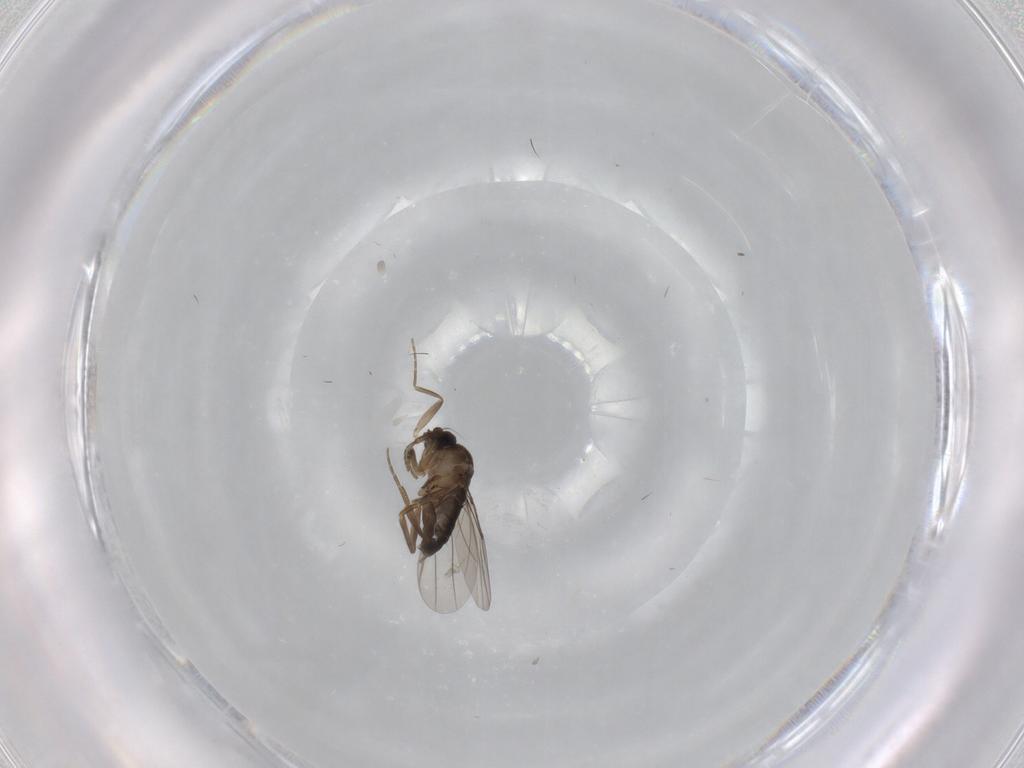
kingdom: Animalia
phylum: Arthropoda
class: Insecta
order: Diptera
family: Phoridae
